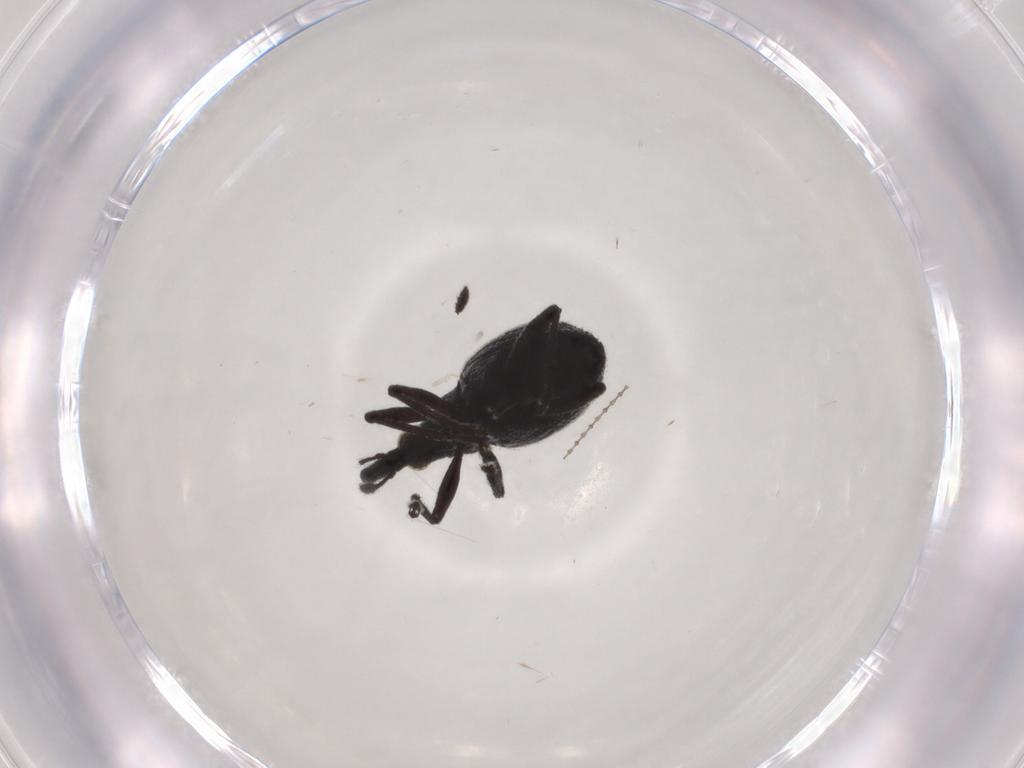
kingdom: Animalia
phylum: Arthropoda
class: Insecta
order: Coleoptera
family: Brentidae
